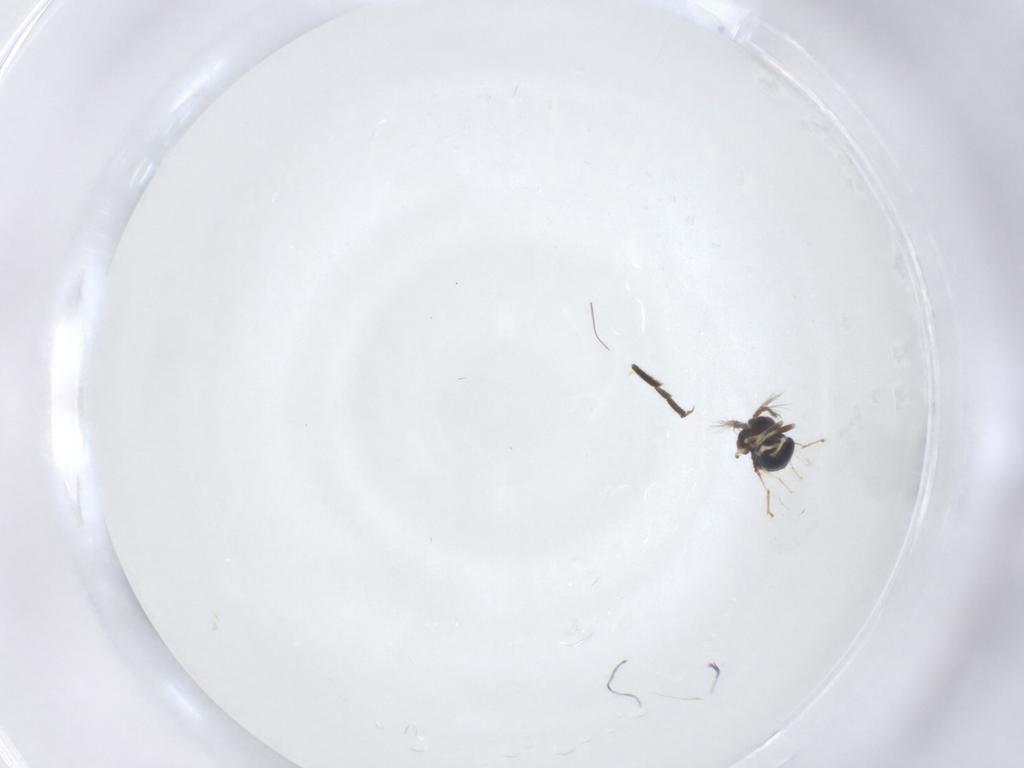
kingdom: Animalia
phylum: Arthropoda
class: Insecta
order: Hymenoptera
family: Eulophidae
